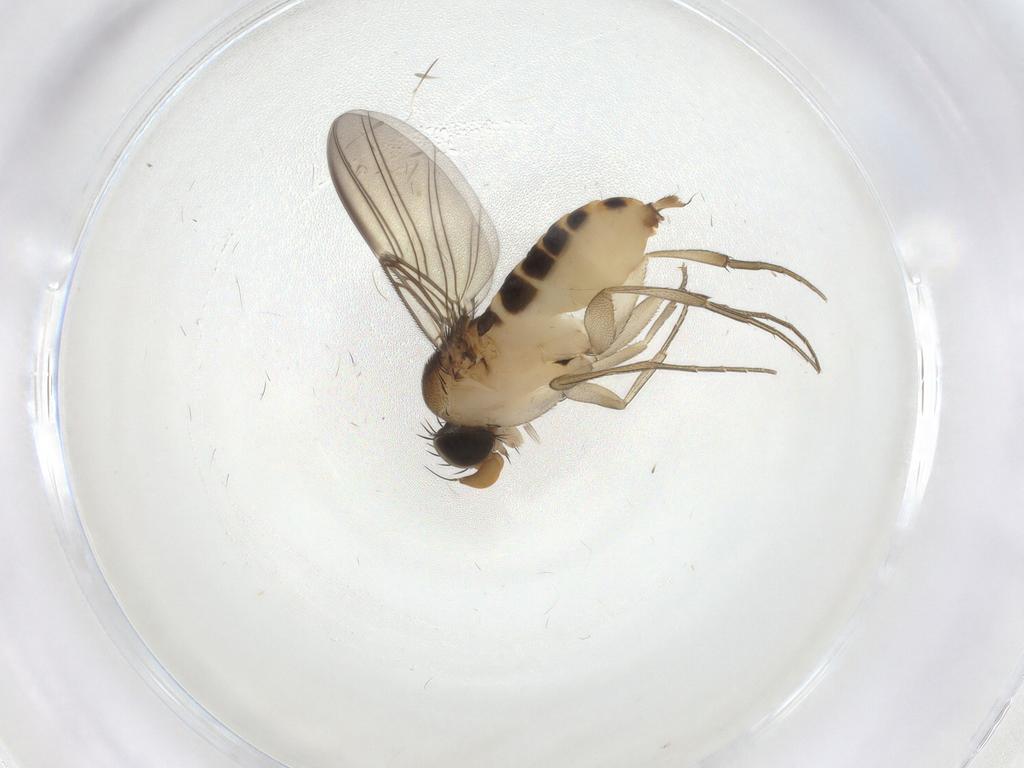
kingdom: Animalia
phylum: Arthropoda
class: Insecta
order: Diptera
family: Phoridae
